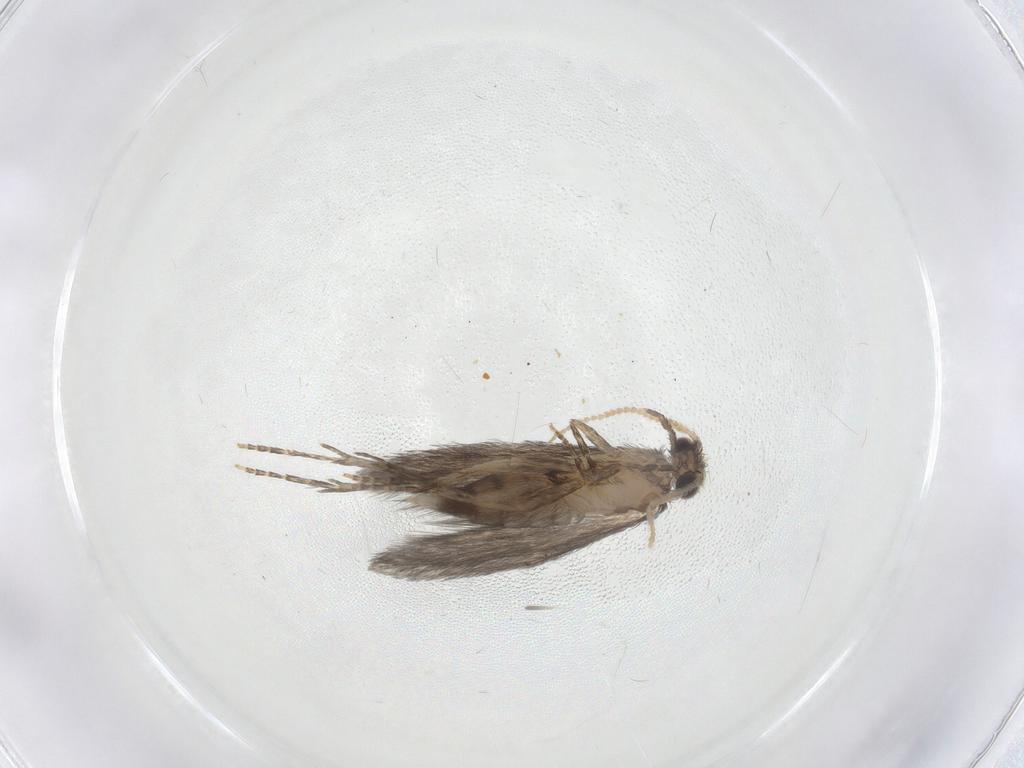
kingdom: Animalia
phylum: Arthropoda
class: Insecta
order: Trichoptera
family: Hydroptilidae
